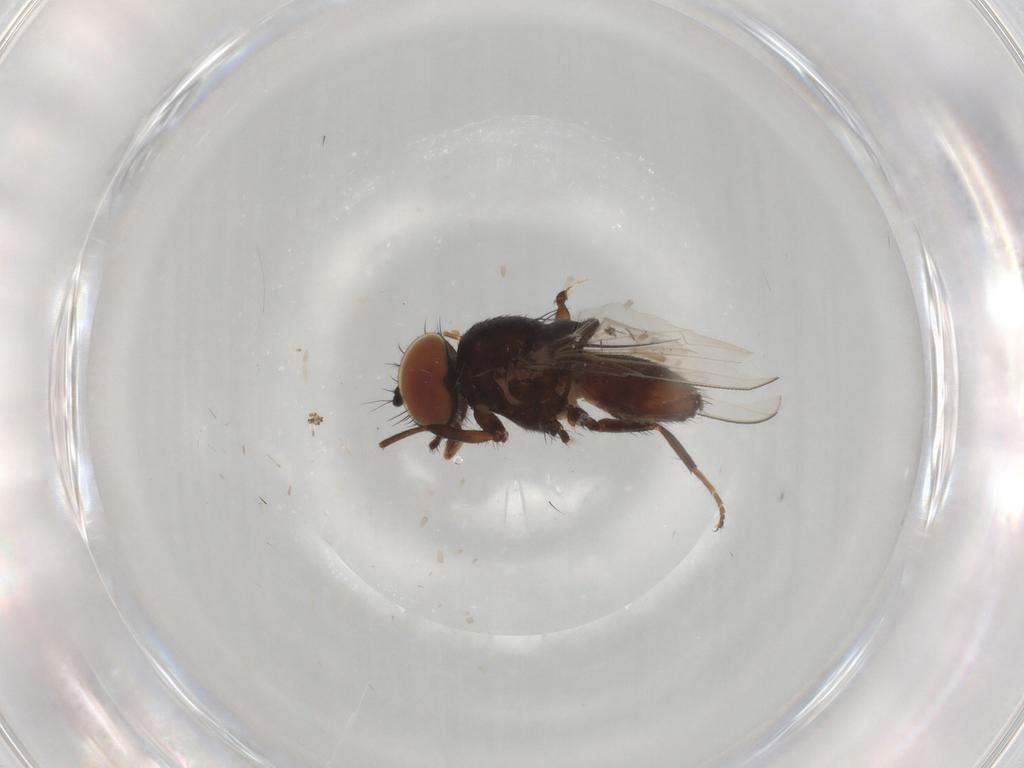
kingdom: Animalia
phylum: Arthropoda
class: Insecta
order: Diptera
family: Milichiidae
